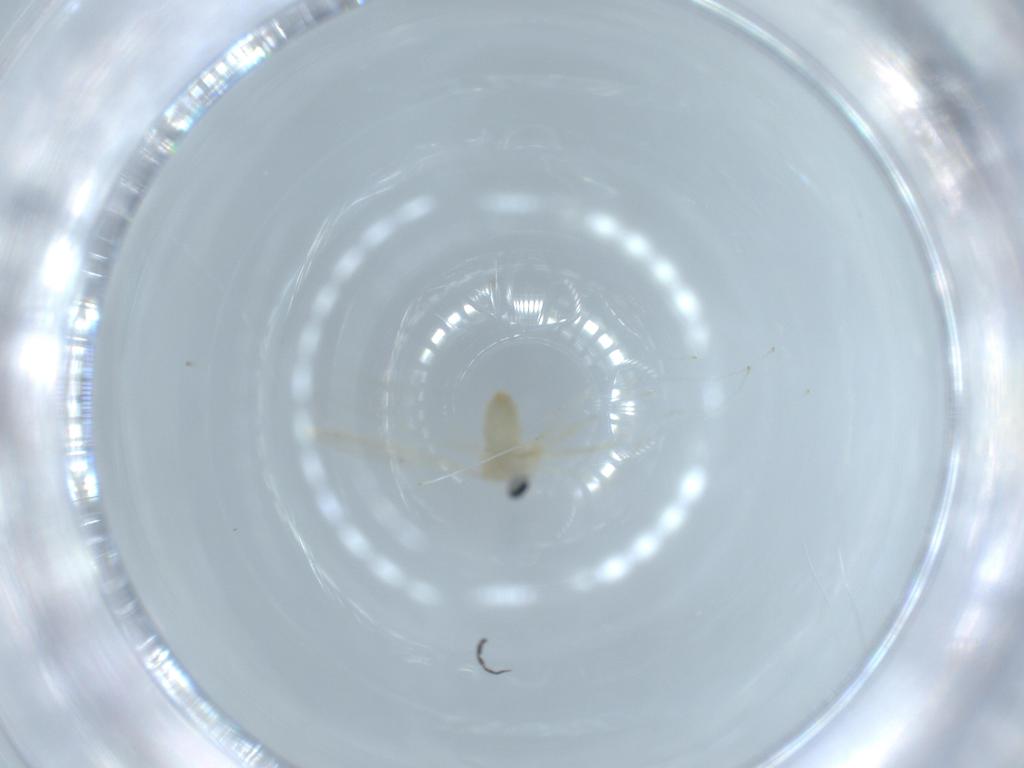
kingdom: Animalia
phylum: Arthropoda
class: Insecta
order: Diptera
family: Cecidomyiidae
